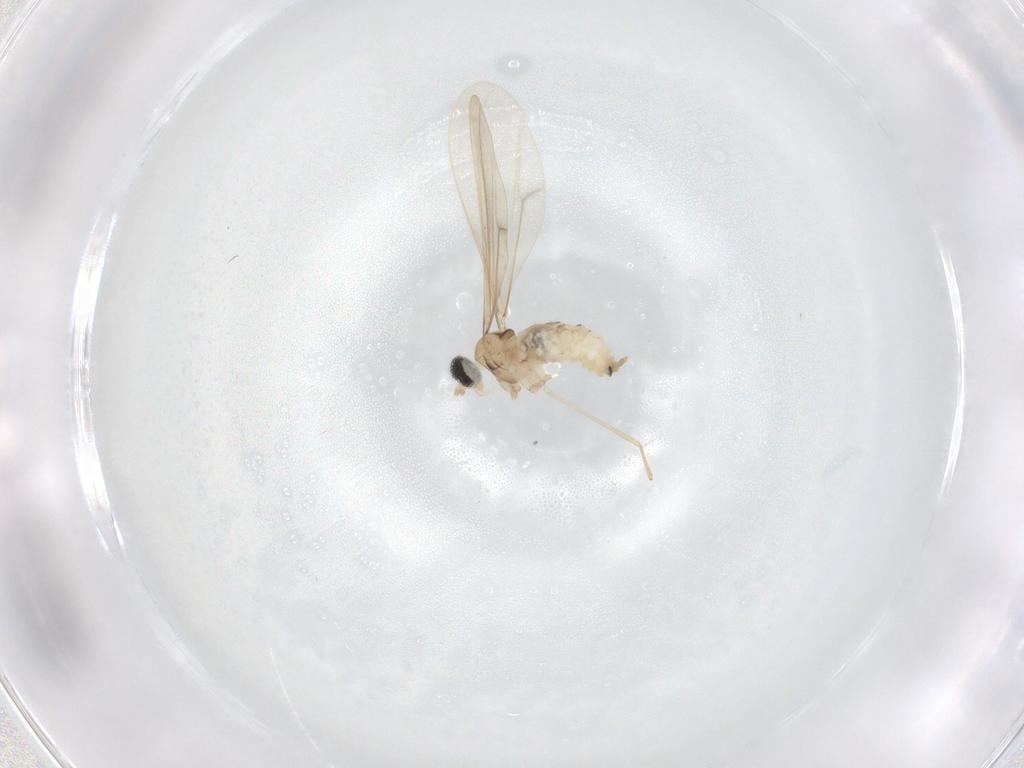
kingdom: Animalia
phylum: Arthropoda
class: Insecta
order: Diptera
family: Cecidomyiidae
